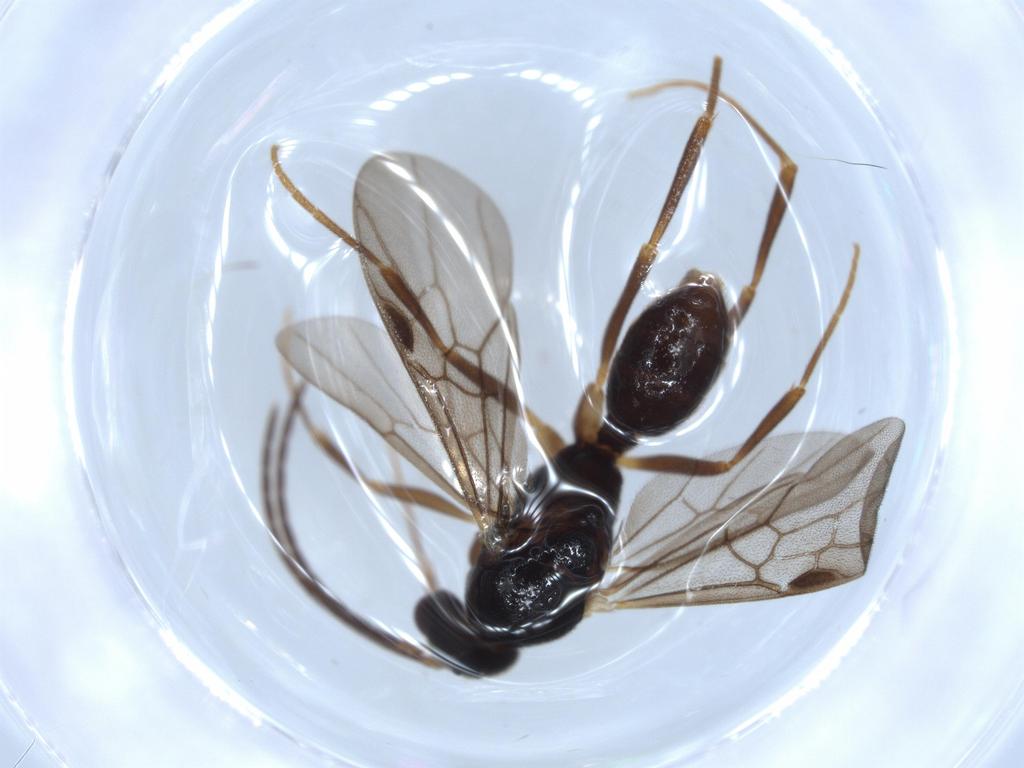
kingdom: Animalia
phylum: Arthropoda
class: Insecta
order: Hymenoptera
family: Formicidae
